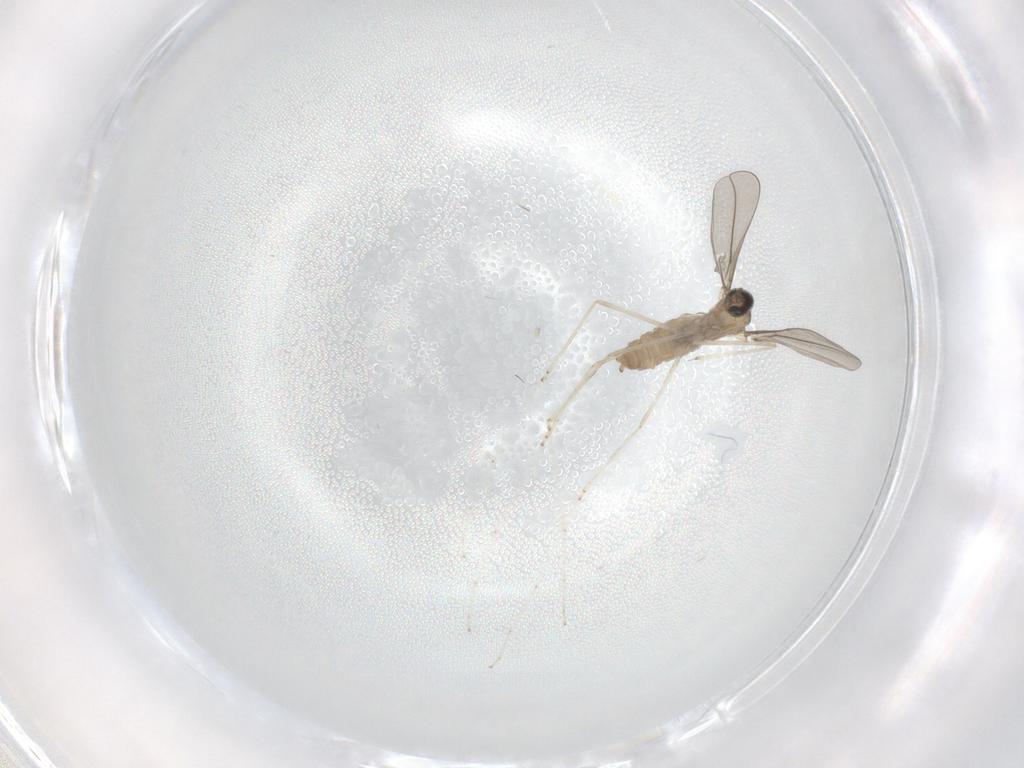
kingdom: Animalia
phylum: Arthropoda
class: Insecta
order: Diptera
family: Cecidomyiidae
